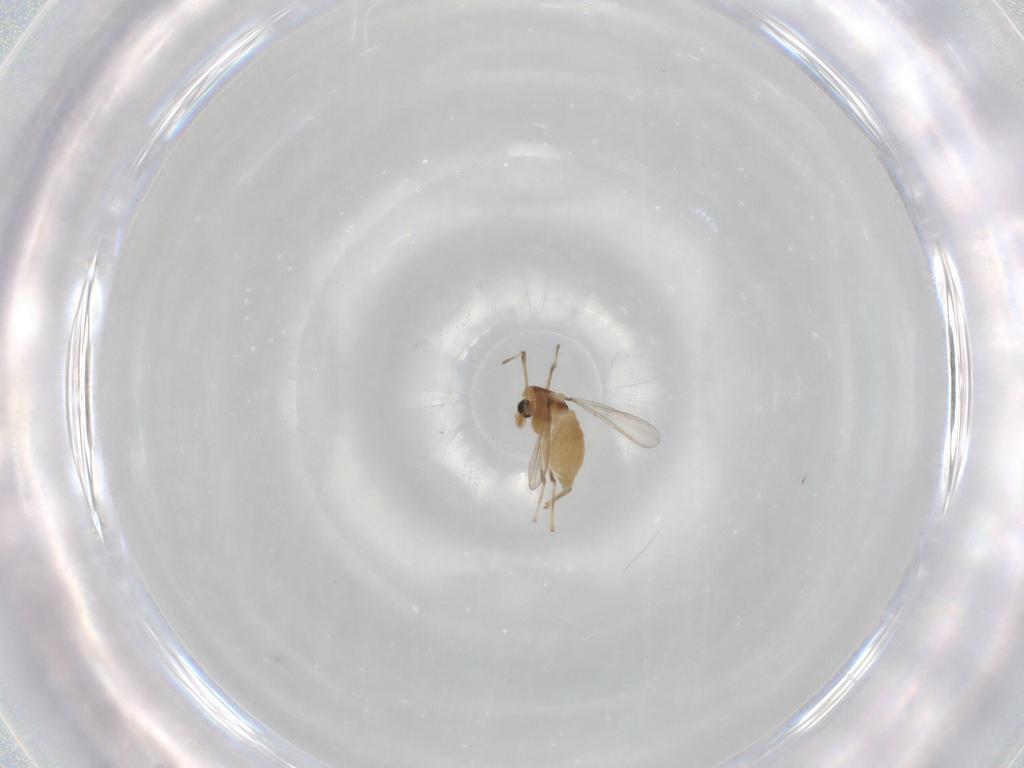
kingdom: Animalia
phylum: Arthropoda
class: Insecta
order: Diptera
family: Chironomidae
